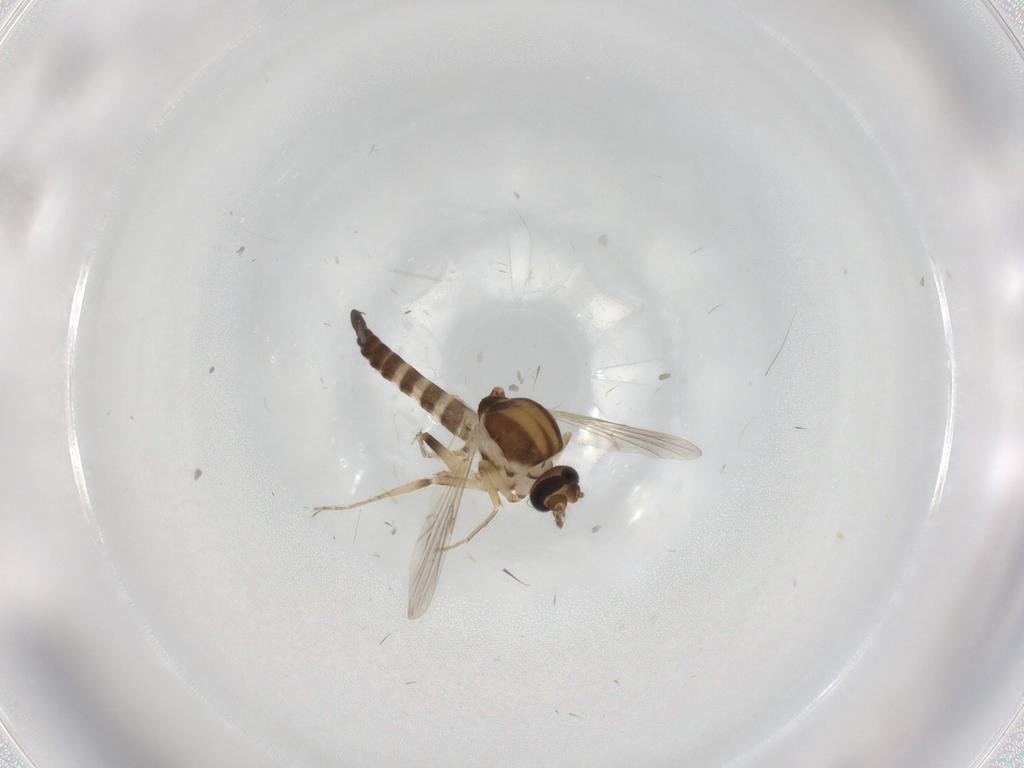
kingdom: Animalia
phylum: Arthropoda
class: Insecta
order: Diptera
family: Ceratopogonidae
